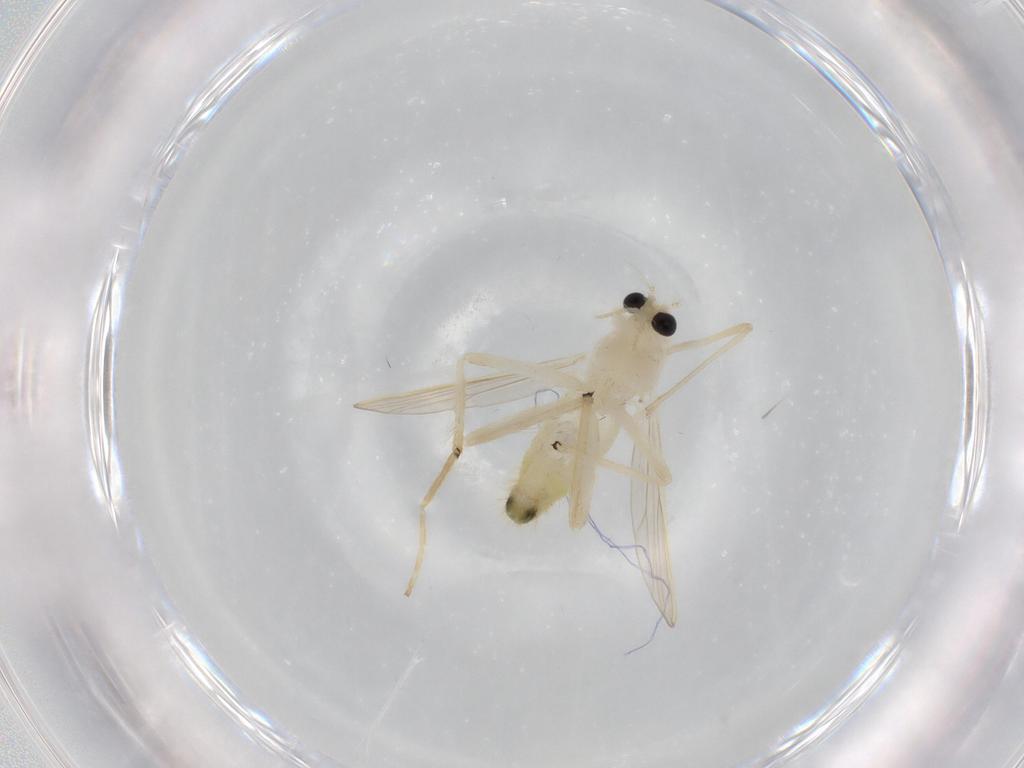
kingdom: Animalia
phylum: Arthropoda
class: Insecta
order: Diptera
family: Chironomidae
